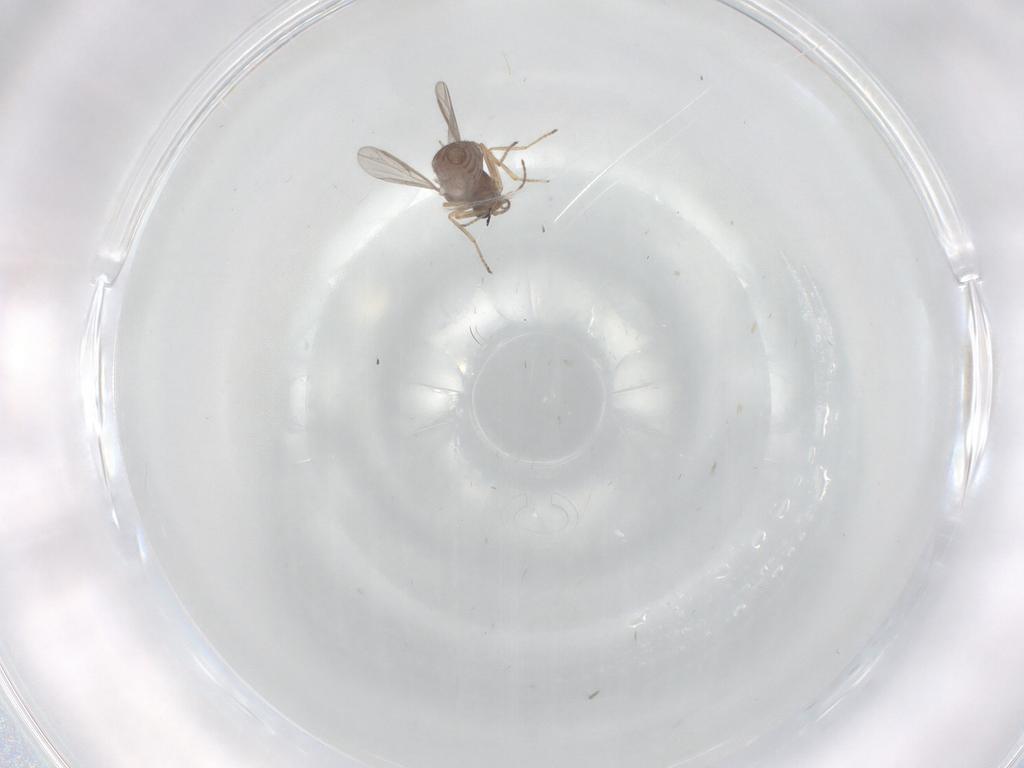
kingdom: Animalia
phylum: Arthropoda
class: Insecta
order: Diptera
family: Ceratopogonidae
